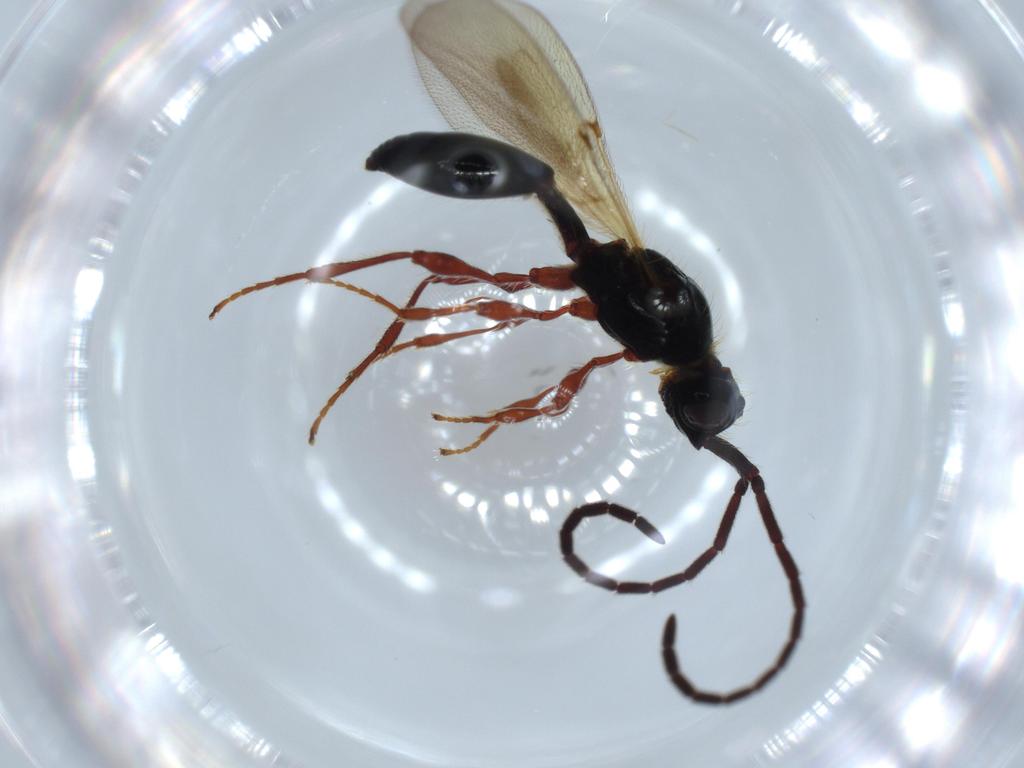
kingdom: Animalia
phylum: Arthropoda
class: Insecta
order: Hymenoptera
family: Diapriidae
